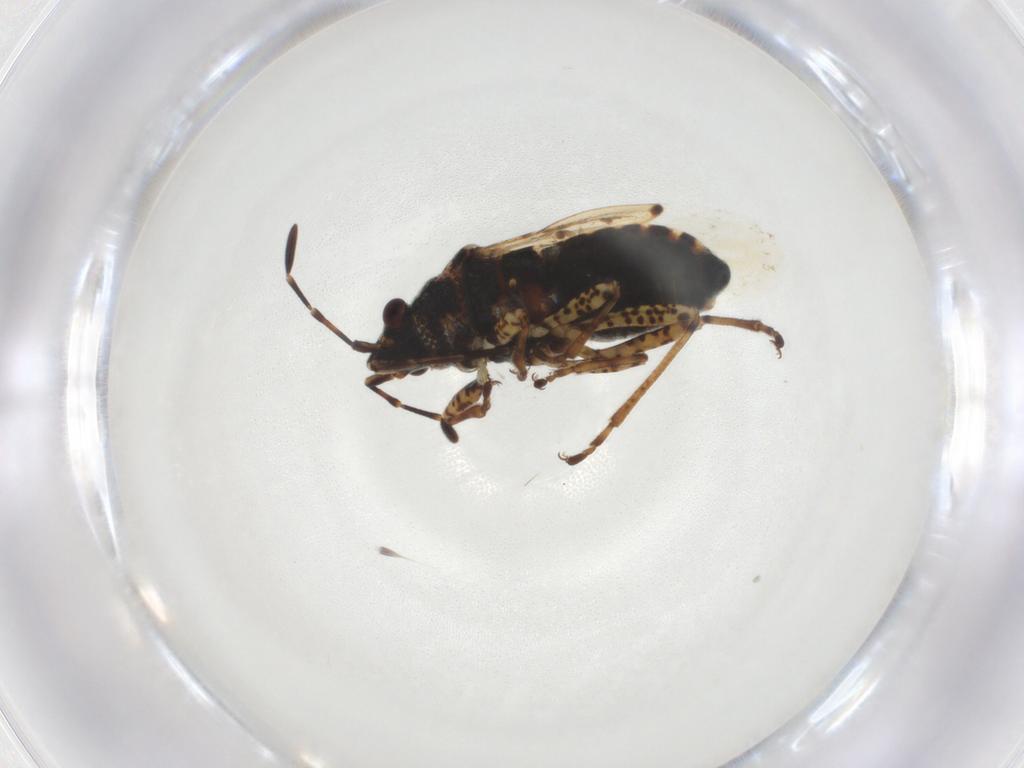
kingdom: Animalia
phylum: Arthropoda
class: Insecta
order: Hemiptera
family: Lygaeidae
